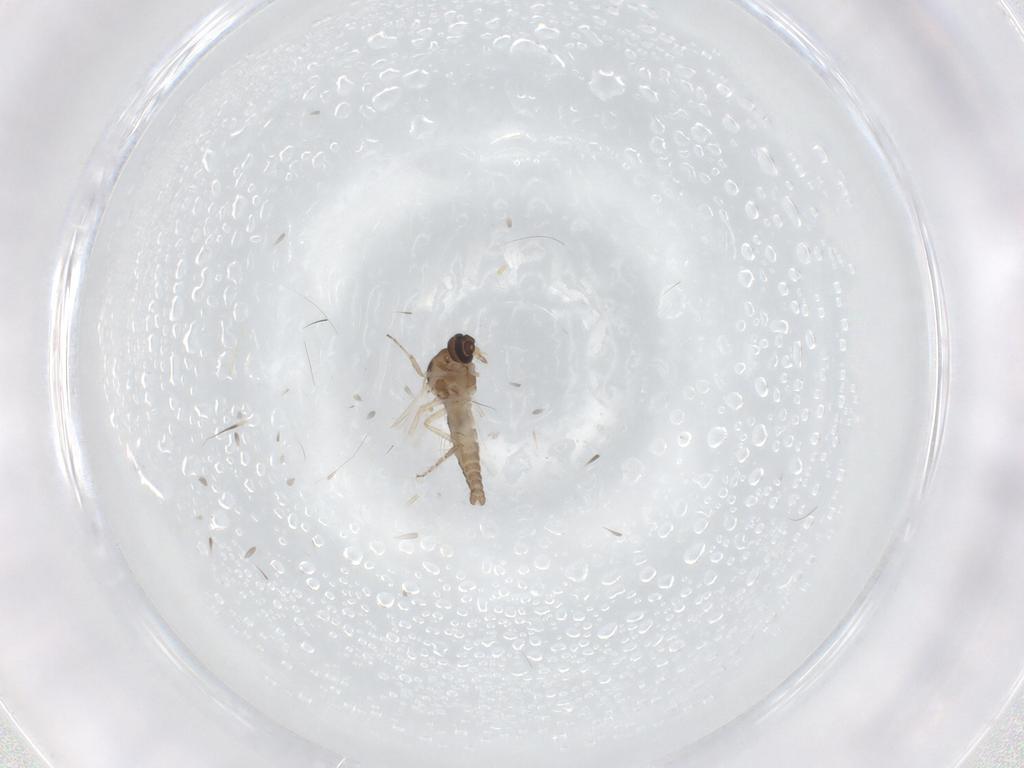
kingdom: Animalia
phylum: Arthropoda
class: Insecta
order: Diptera
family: Ceratopogonidae
